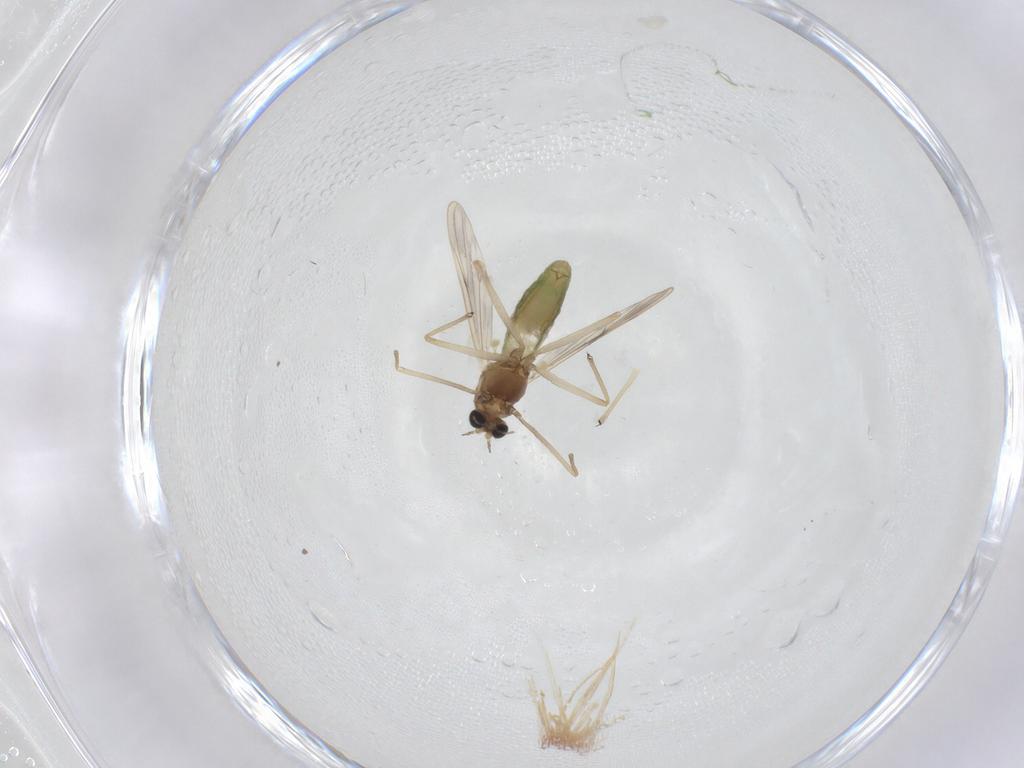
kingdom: Animalia
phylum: Arthropoda
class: Insecta
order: Diptera
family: Chironomidae
